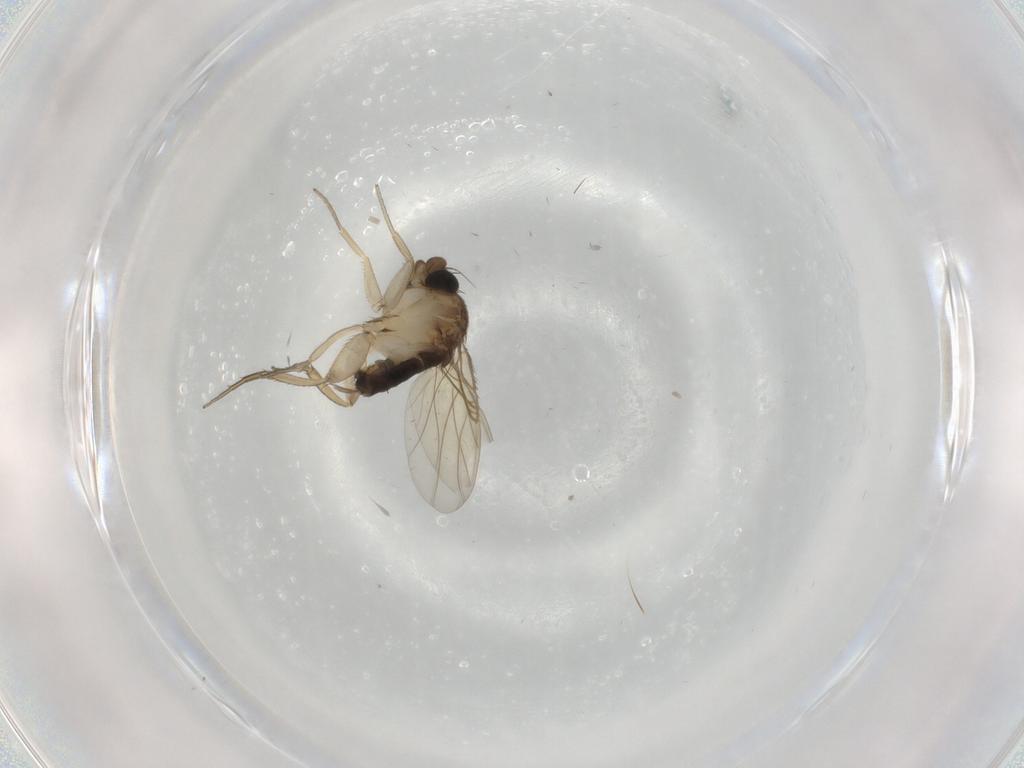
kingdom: Animalia
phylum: Arthropoda
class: Insecta
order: Diptera
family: Phoridae
